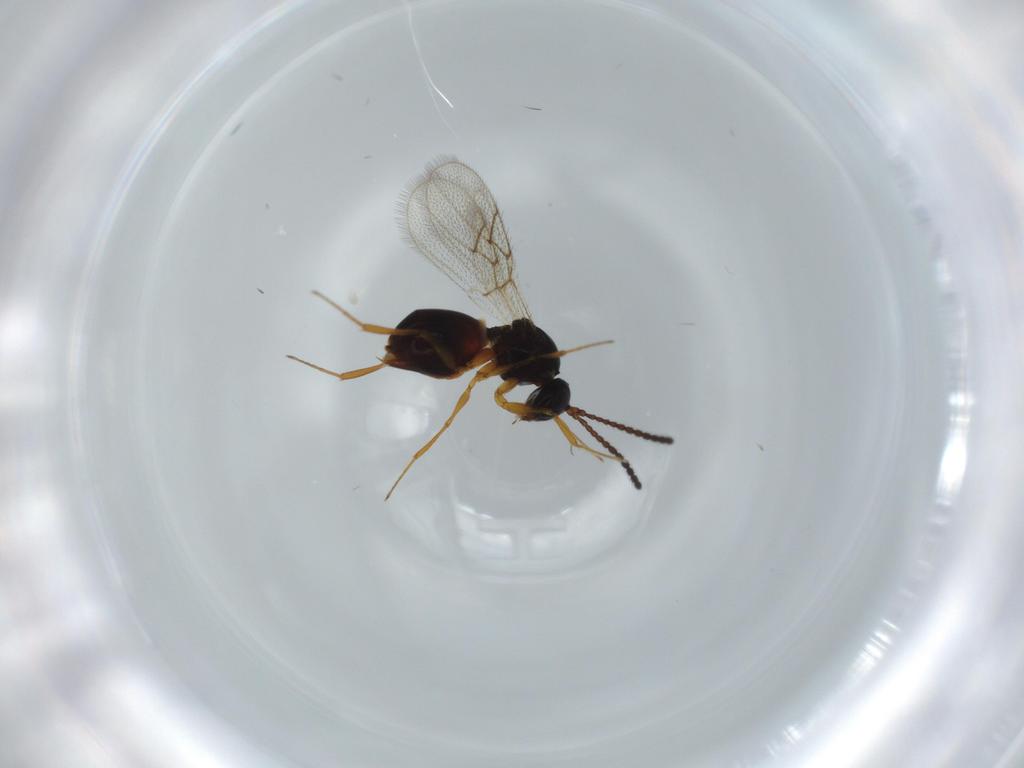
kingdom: Animalia
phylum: Arthropoda
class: Insecta
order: Hymenoptera
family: Figitidae
